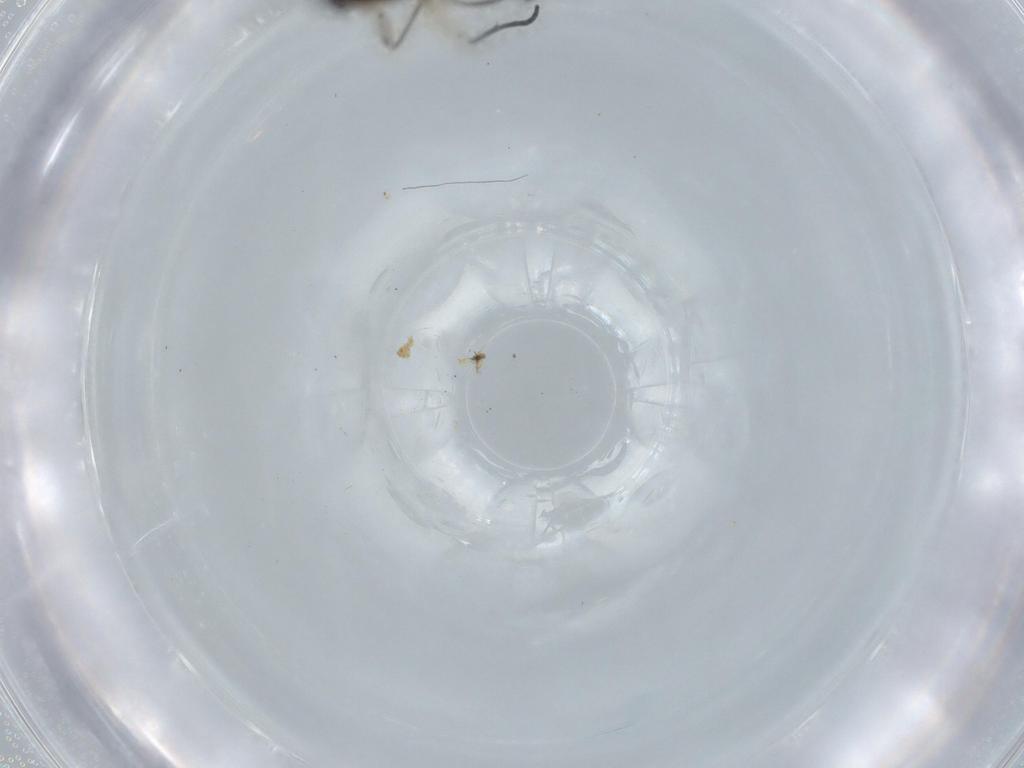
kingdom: Animalia
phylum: Arthropoda
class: Insecta
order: Diptera
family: Cecidomyiidae
